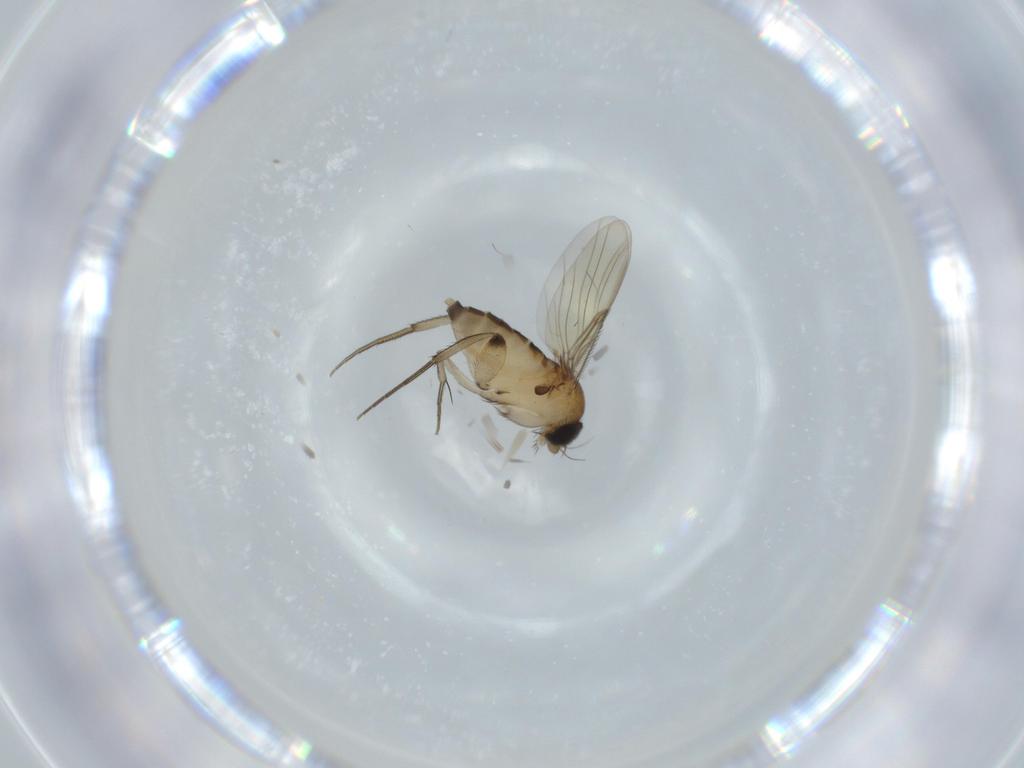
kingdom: Animalia
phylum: Arthropoda
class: Insecta
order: Diptera
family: Phoridae
